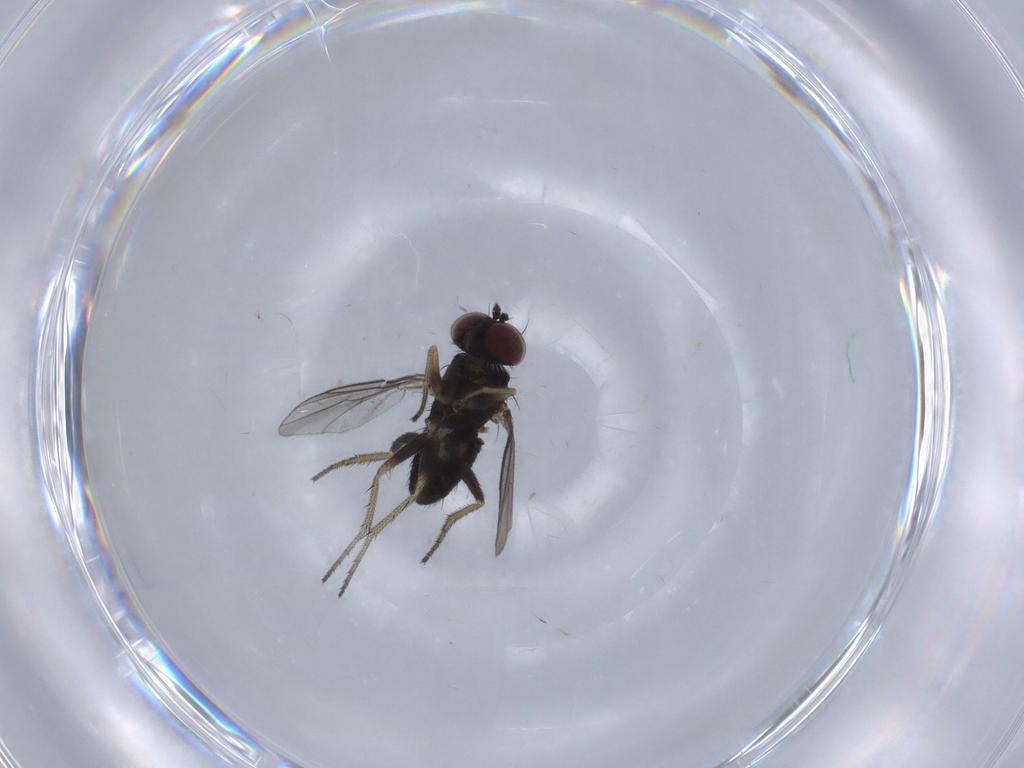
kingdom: Animalia
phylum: Arthropoda
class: Insecta
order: Diptera
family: Dolichopodidae
